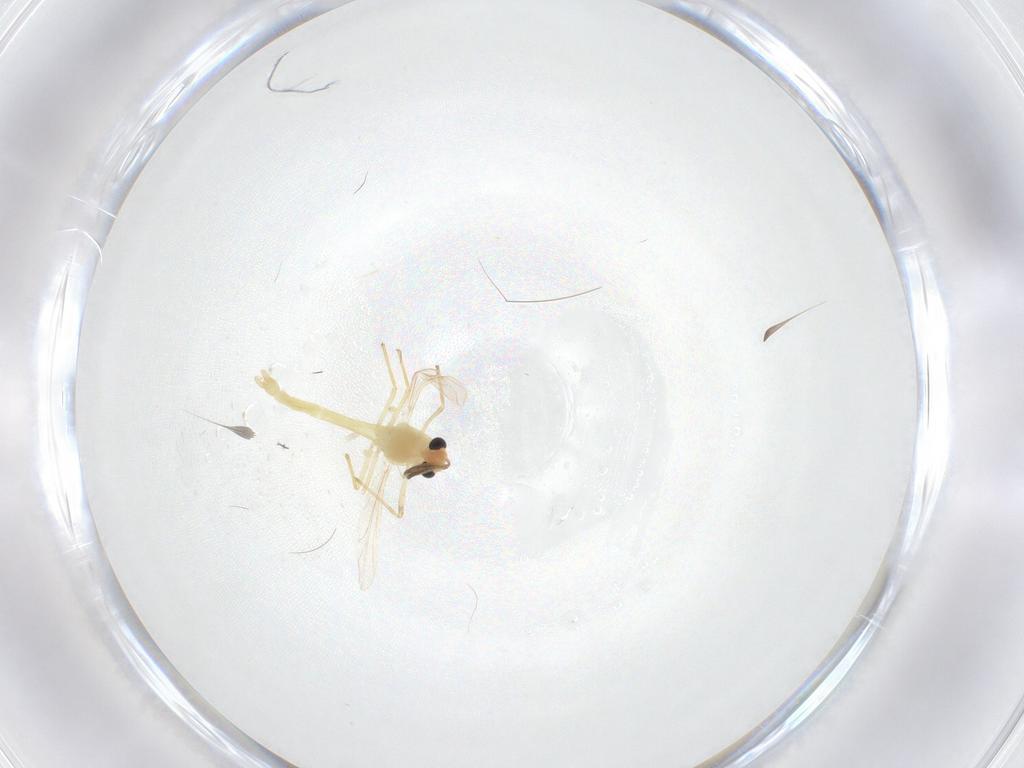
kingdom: Animalia
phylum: Arthropoda
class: Insecta
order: Diptera
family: Chironomidae
